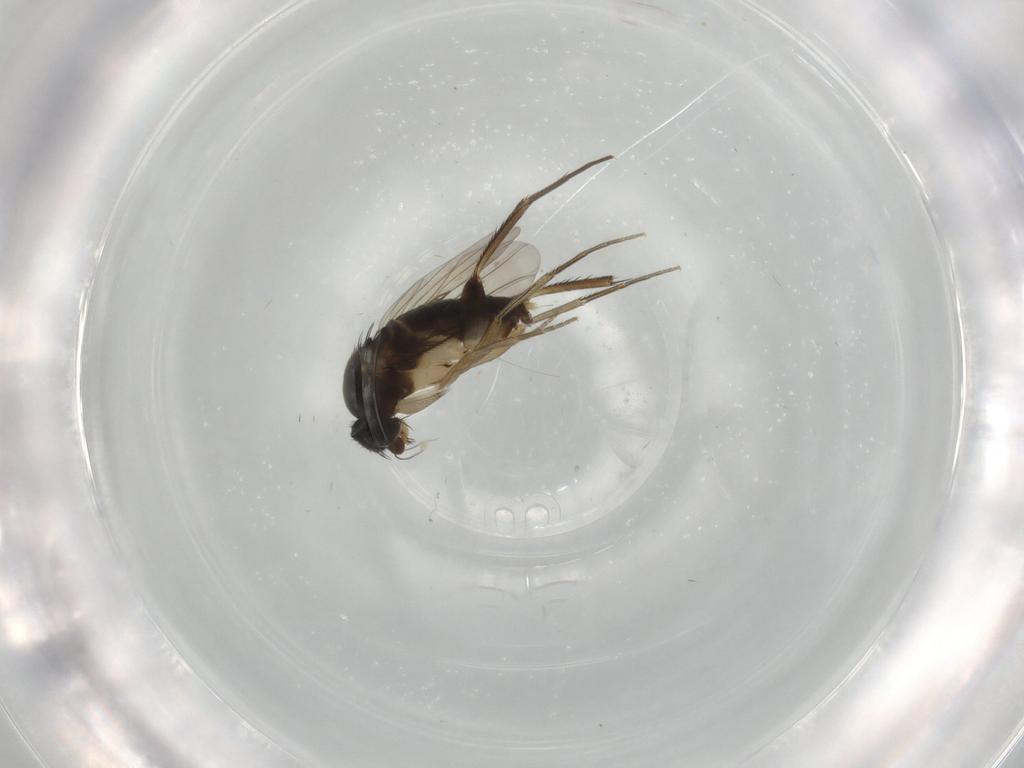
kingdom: Animalia
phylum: Arthropoda
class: Insecta
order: Diptera
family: Phoridae
